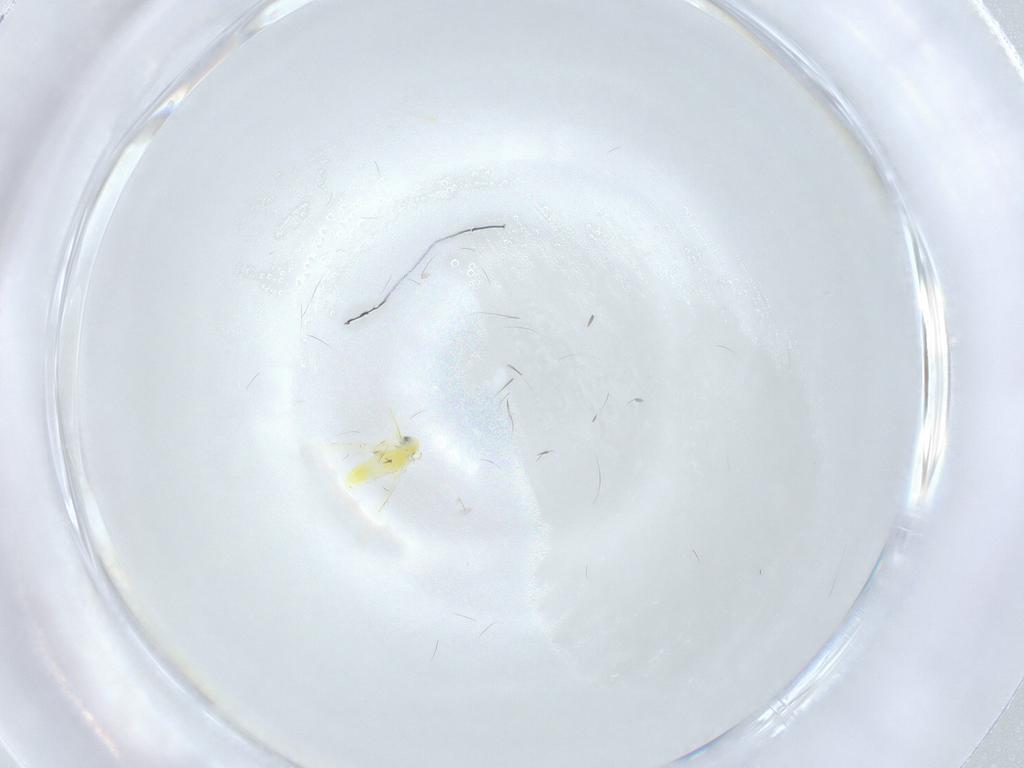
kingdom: Animalia
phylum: Arthropoda
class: Insecta
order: Hemiptera
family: Aleyrodidae
